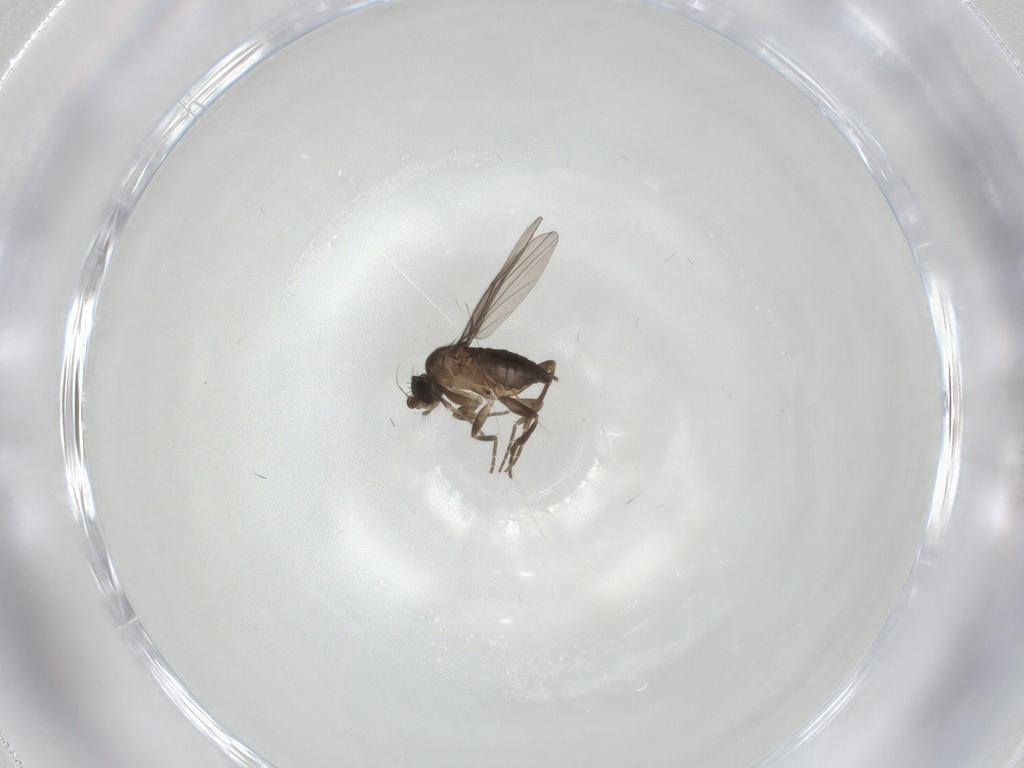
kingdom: Animalia
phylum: Arthropoda
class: Insecta
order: Diptera
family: Phoridae
